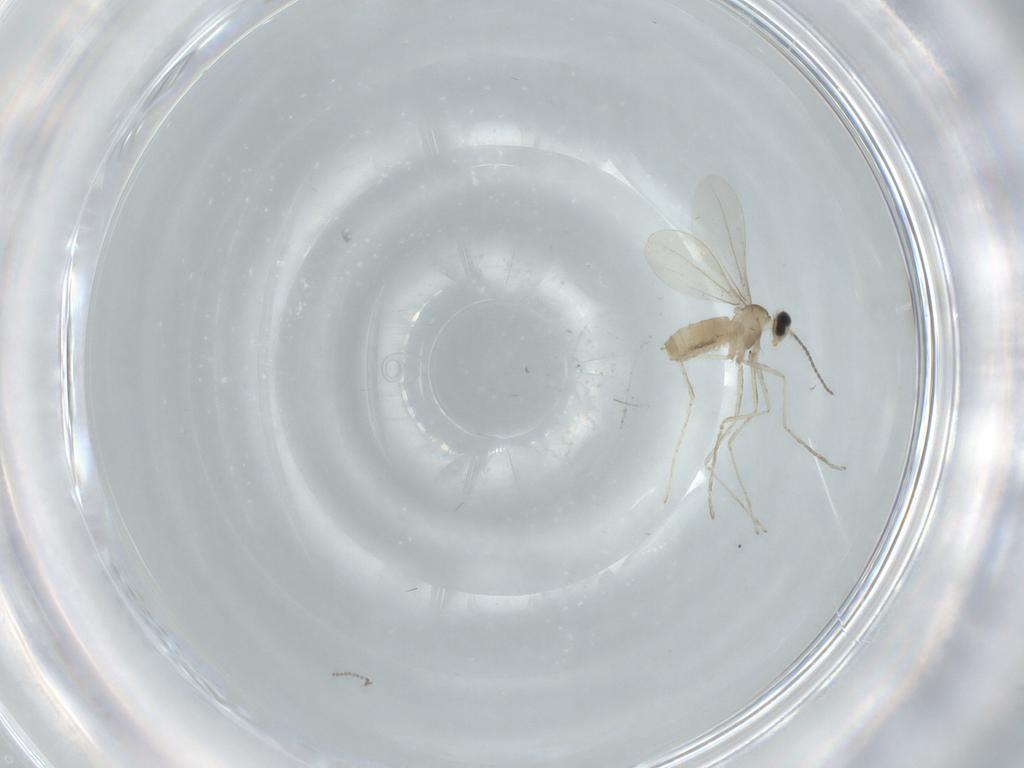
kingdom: Animalia
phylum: Arthropoda
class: Insecta
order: Diptera
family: Cecidomyiidae
